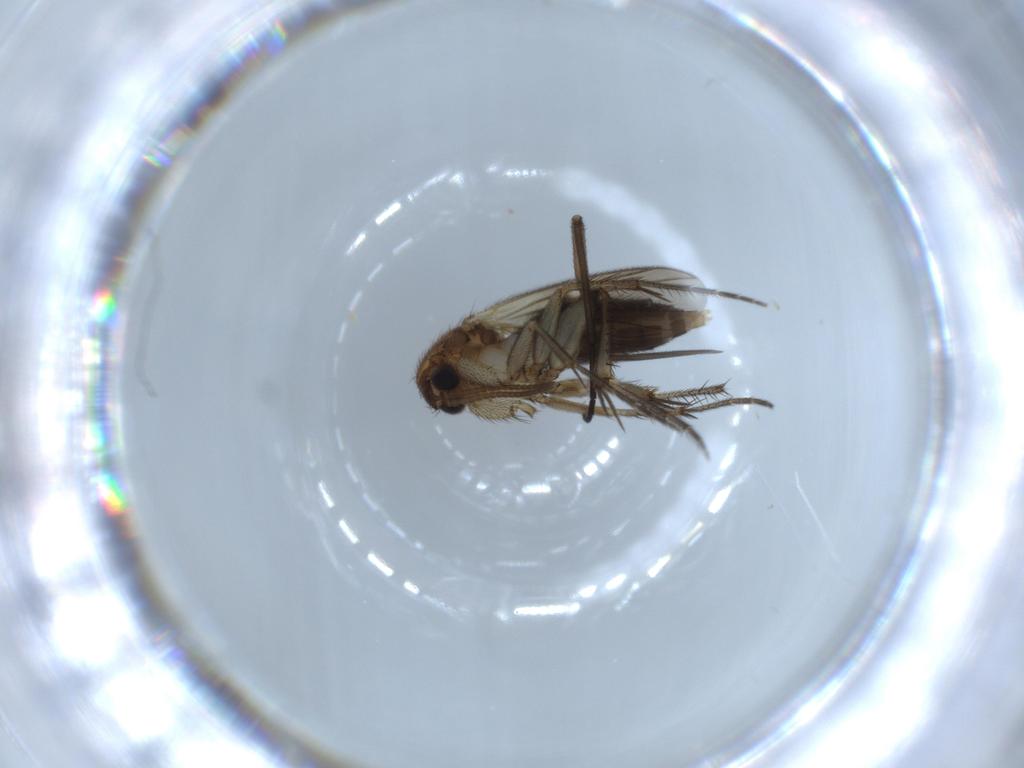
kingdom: Animalia
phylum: Arthropoda
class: Insecta
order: Diptera
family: Mycetophilidae
